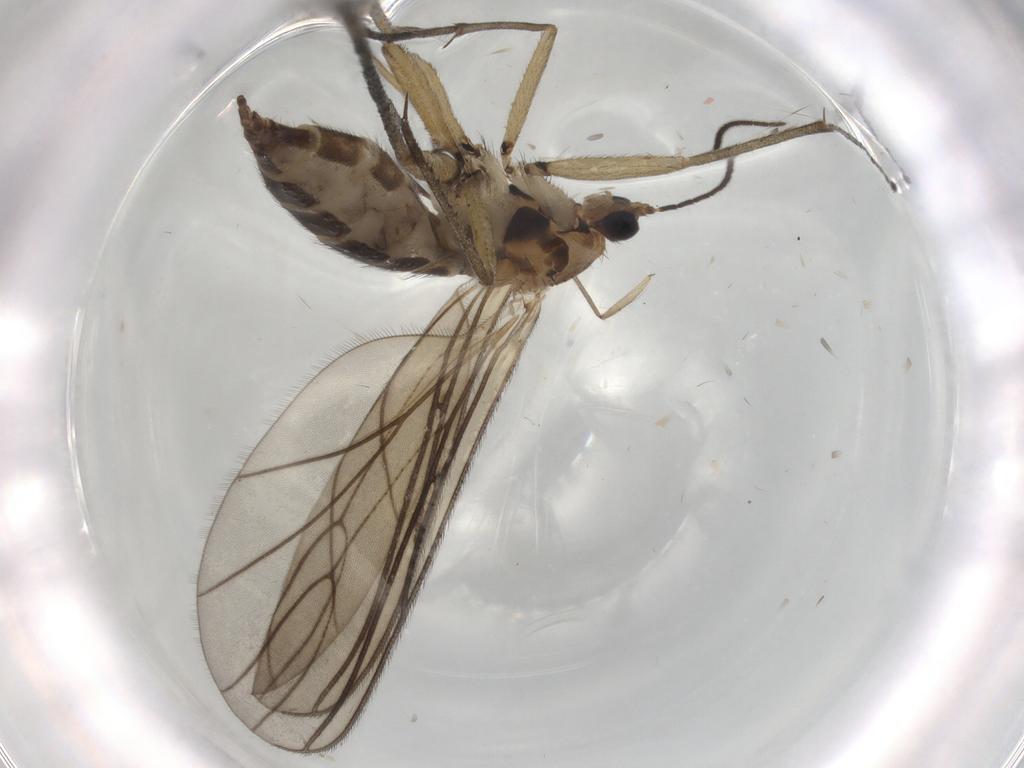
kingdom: Animalia
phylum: Arthropoda
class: Insecta
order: Diptera
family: Sciaridae
